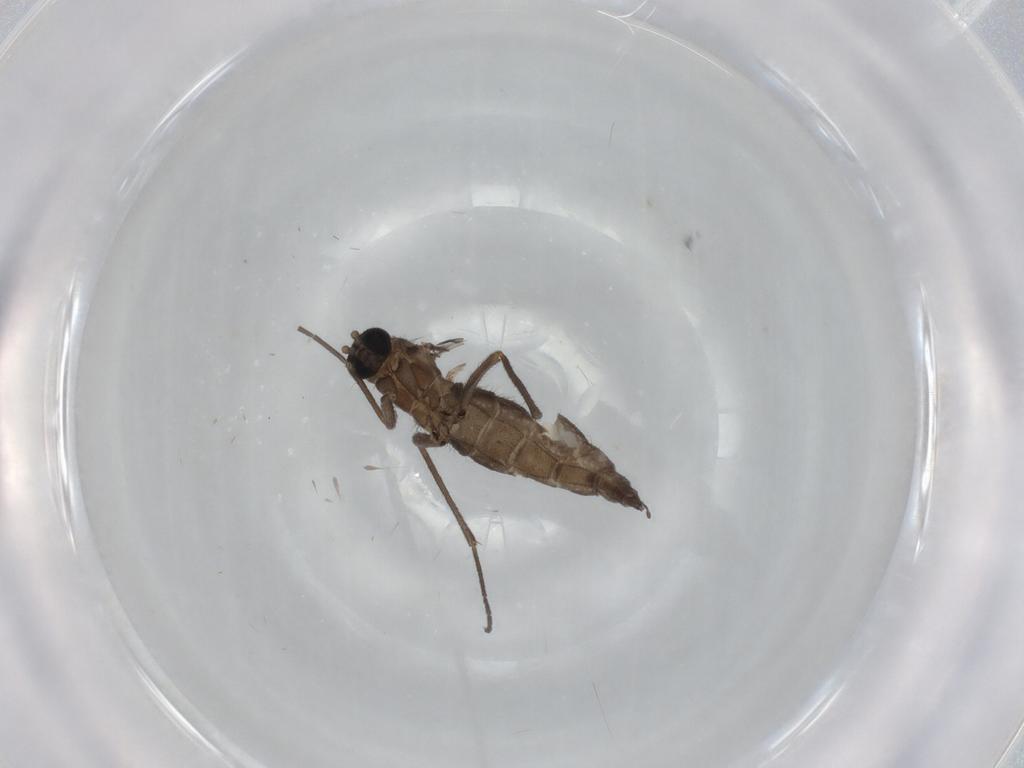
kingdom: Animalia
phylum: Arthropoda
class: Insecta
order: Diptera
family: Sciaridae
